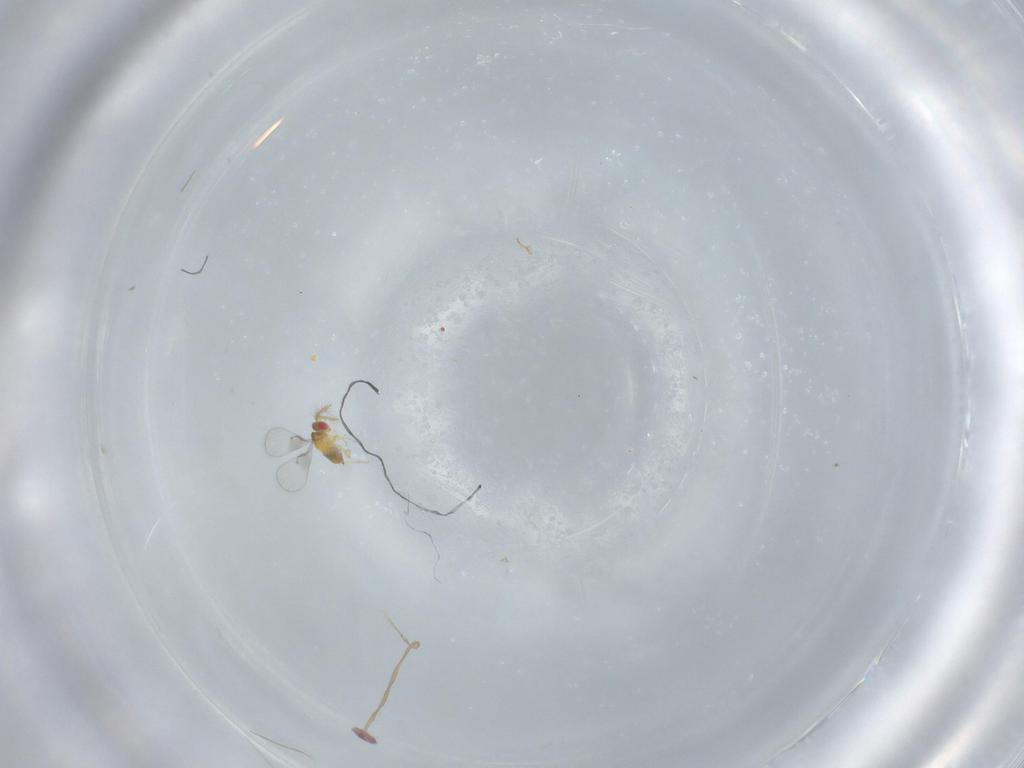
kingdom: Animalia
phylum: Arthropoda
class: Insecta
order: Hymenoptera
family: Trichogrammatidae
